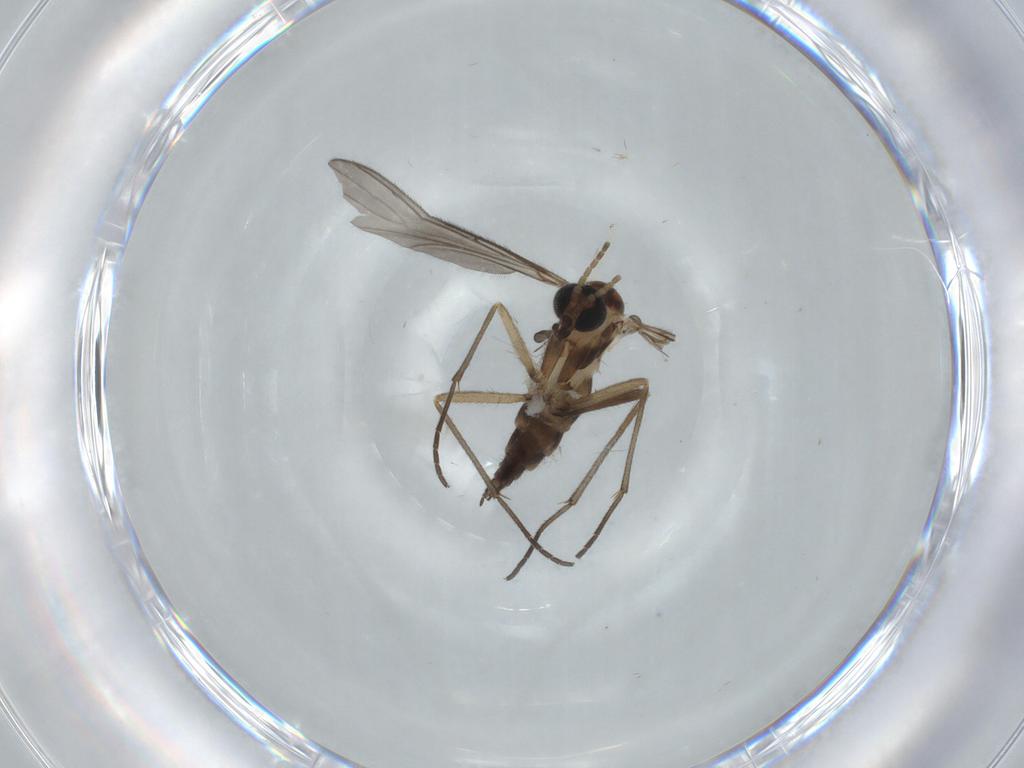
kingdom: Animalia
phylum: Arthropoda
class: Insecta
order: Diptera
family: Sciaridae
